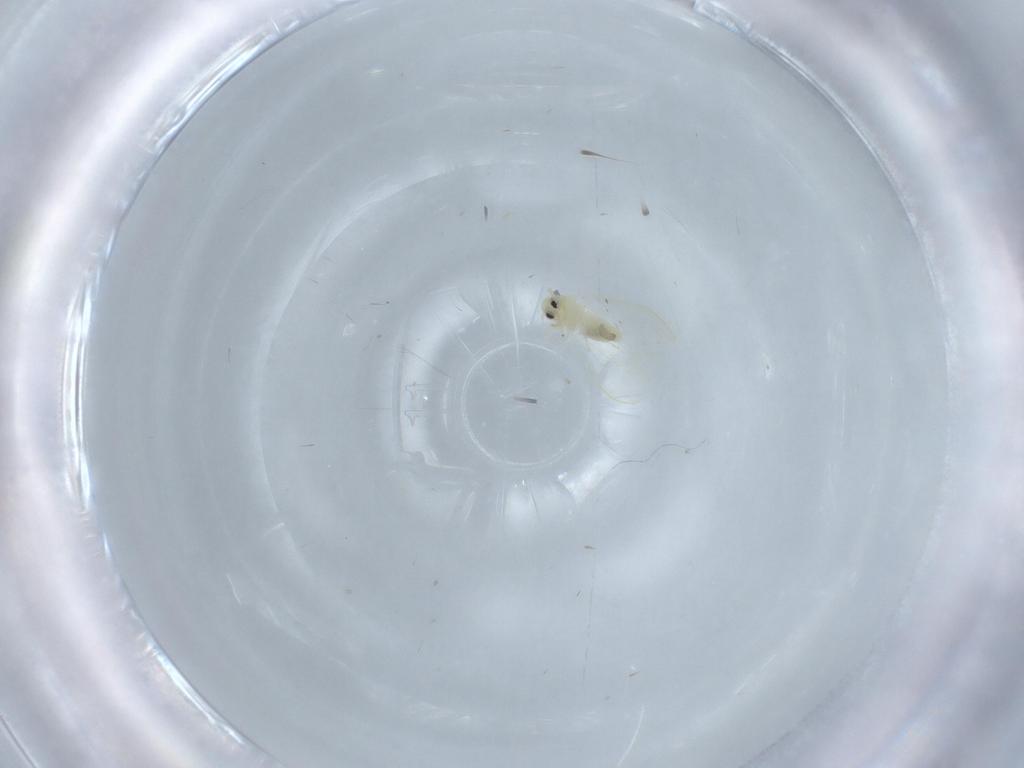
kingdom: Animalia
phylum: Arthropoda
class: Insecta
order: Hemiptera
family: Aleyrodidae
